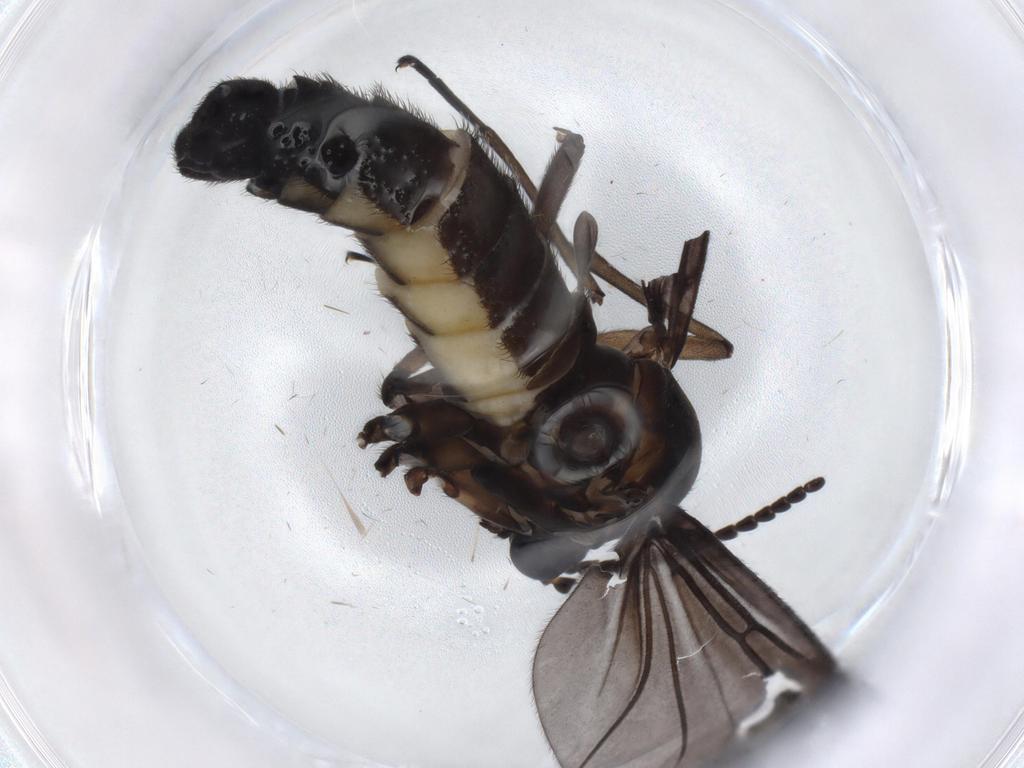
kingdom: Animalia
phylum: Arthropoda
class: Insecta
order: Diptera
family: Sciaridae
